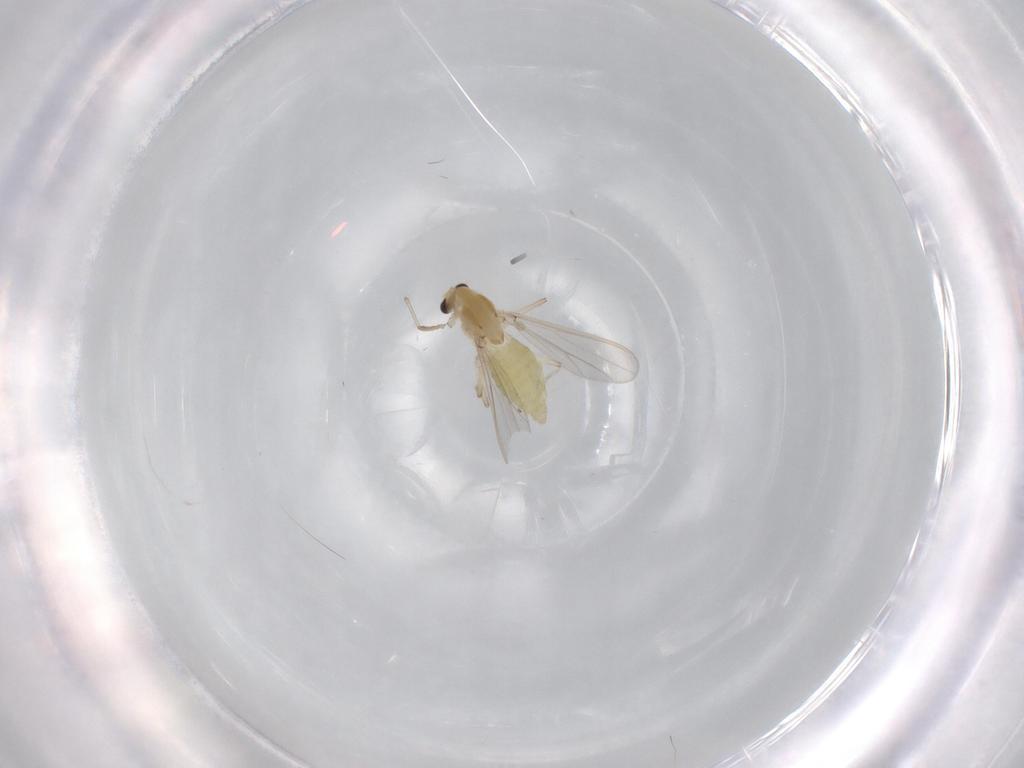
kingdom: Animalia
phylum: Arthropoda
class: Insecta
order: Diptera
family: Chironomidae
